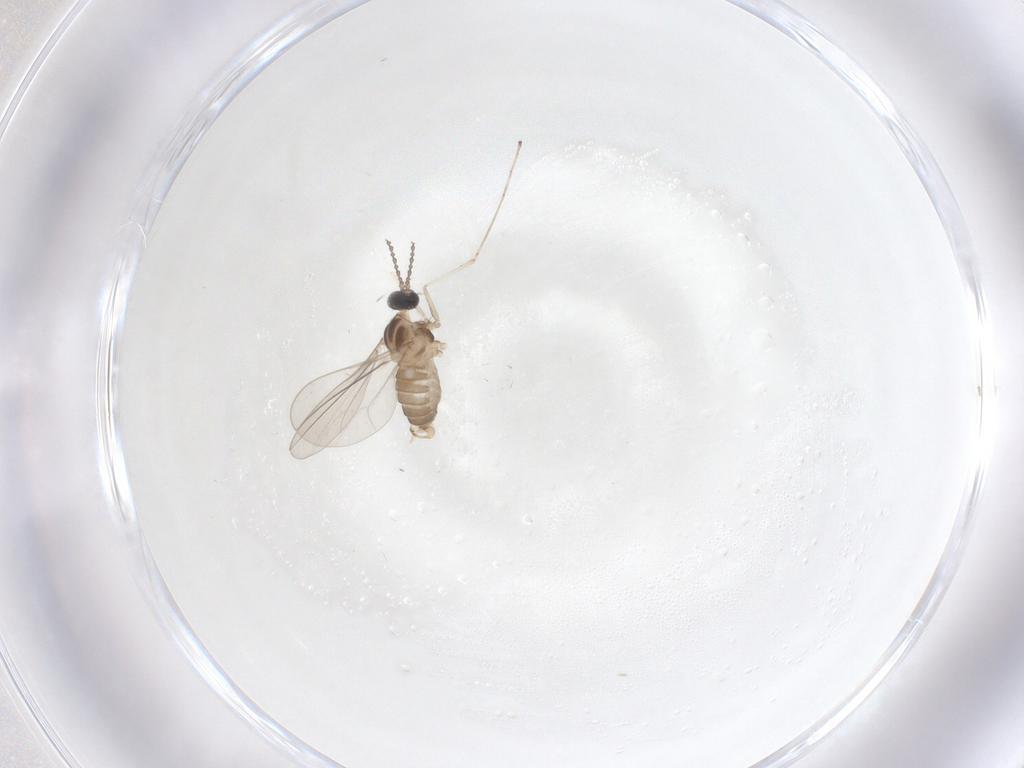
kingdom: Animalia
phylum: Arthropoda
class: Insecta
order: Diptera
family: Cecidomyiidae
